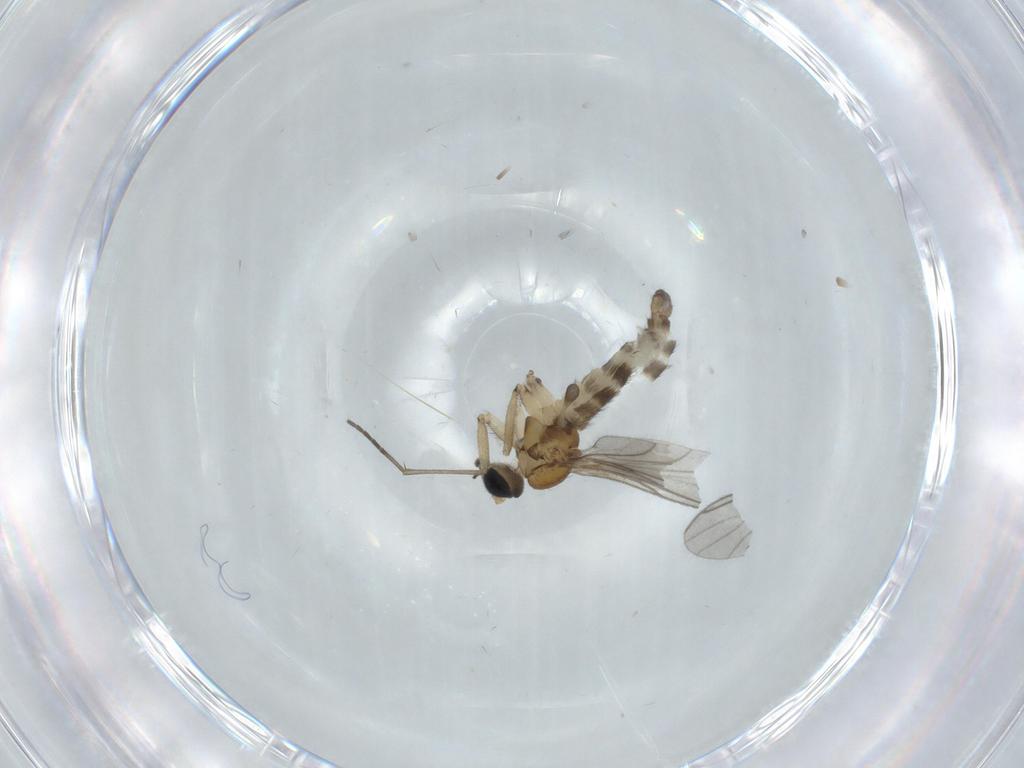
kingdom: Animalia
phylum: Arthropoda
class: Insecta
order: Diptera
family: Sciaridae
